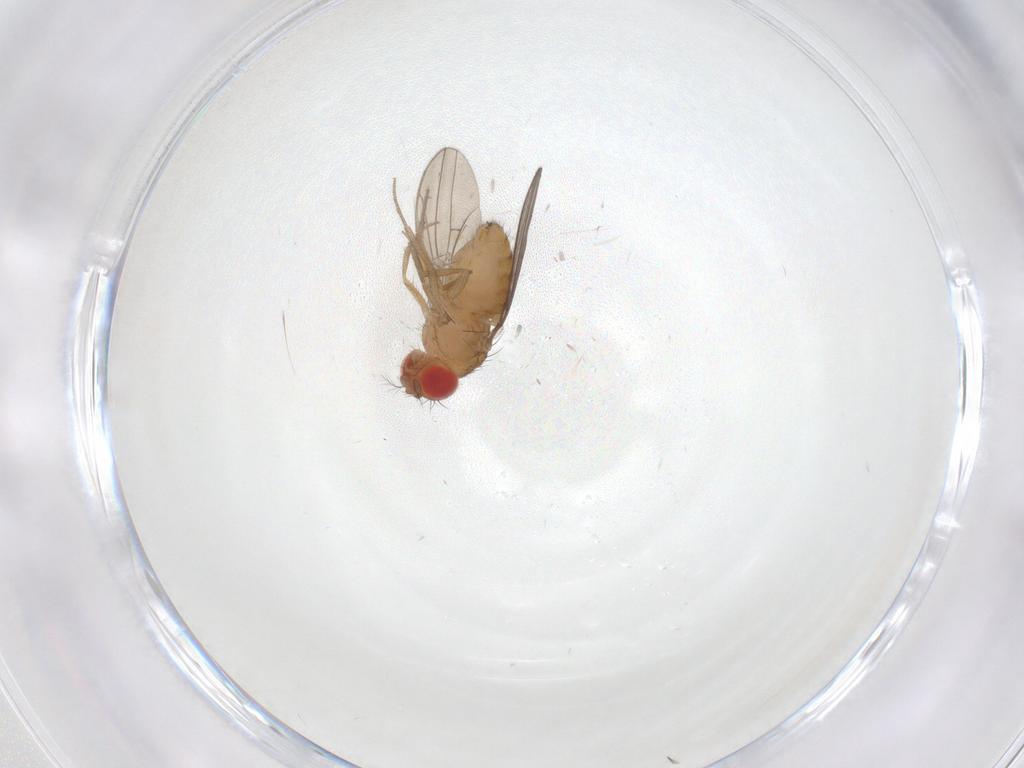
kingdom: Animalia
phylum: Arthropoda
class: Insecta
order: Diptera
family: Drosophilidae
